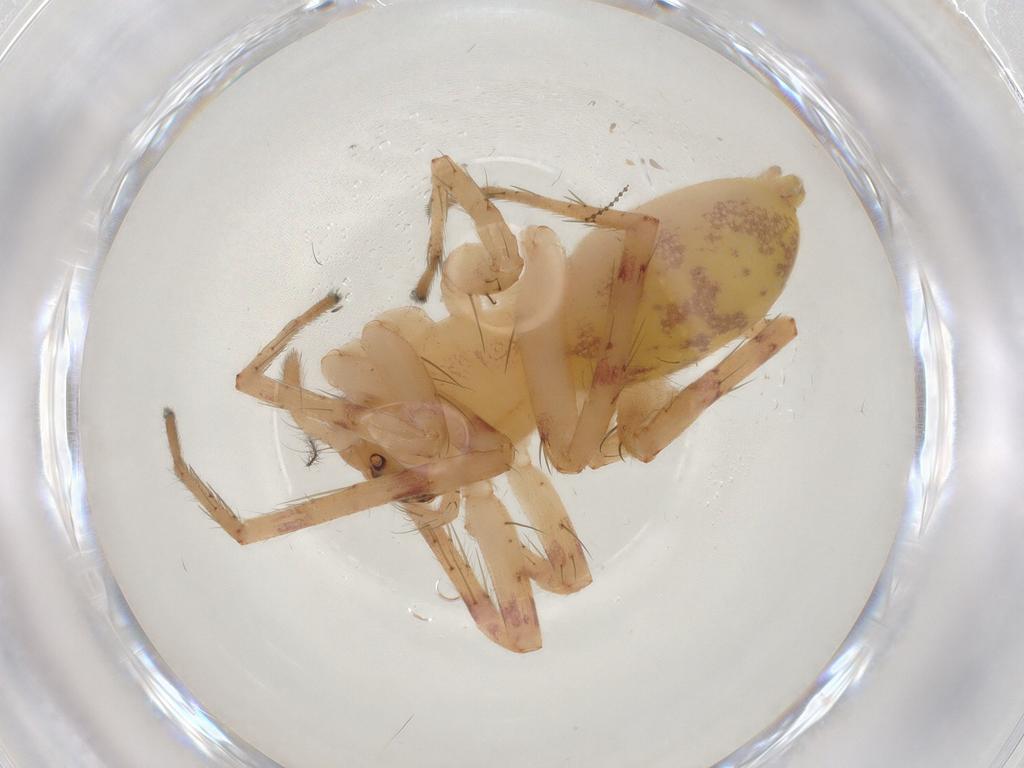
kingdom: Animalia
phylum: Arthropoda
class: Arachnida
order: Araneae
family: Anyphaenidae
